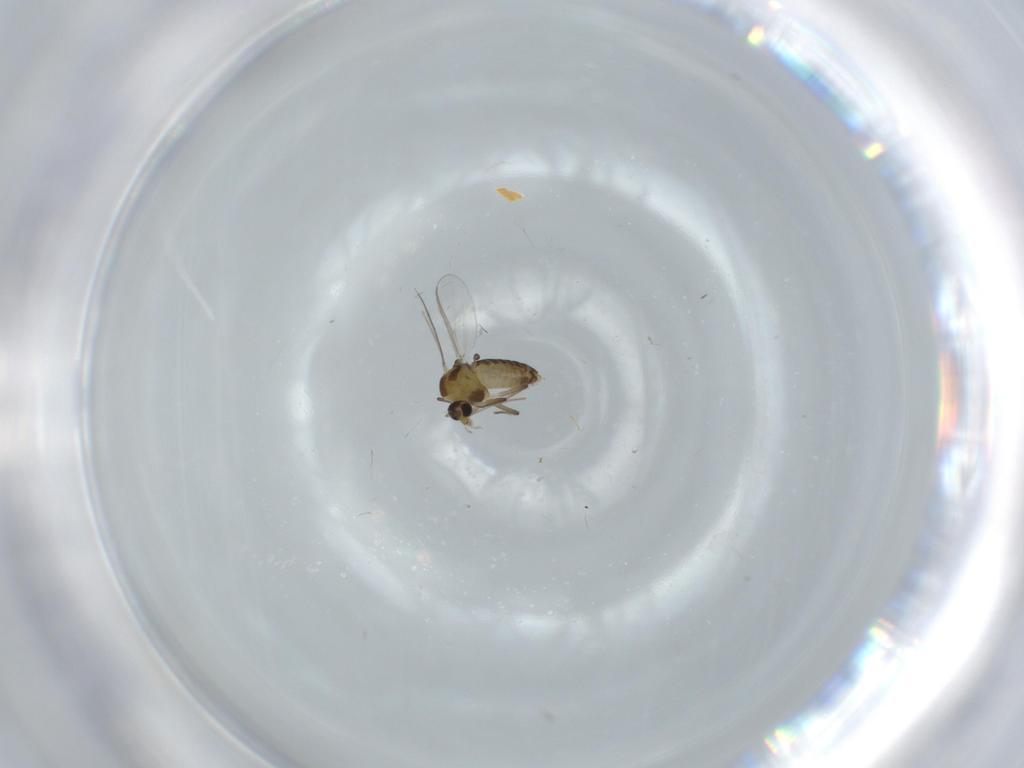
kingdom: Animalia
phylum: Arthropoda
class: Insecta
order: Diptera
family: Chironomidae
